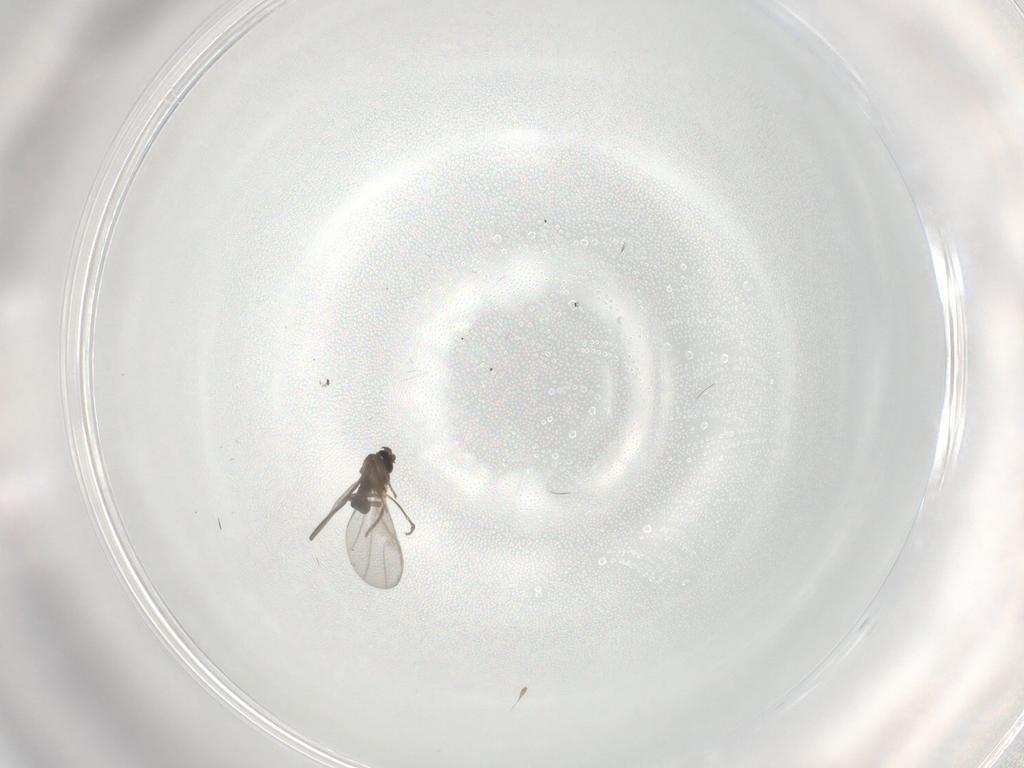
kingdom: Animalia
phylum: Arthropoda
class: Insecta
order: Diptera
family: Phoridae
